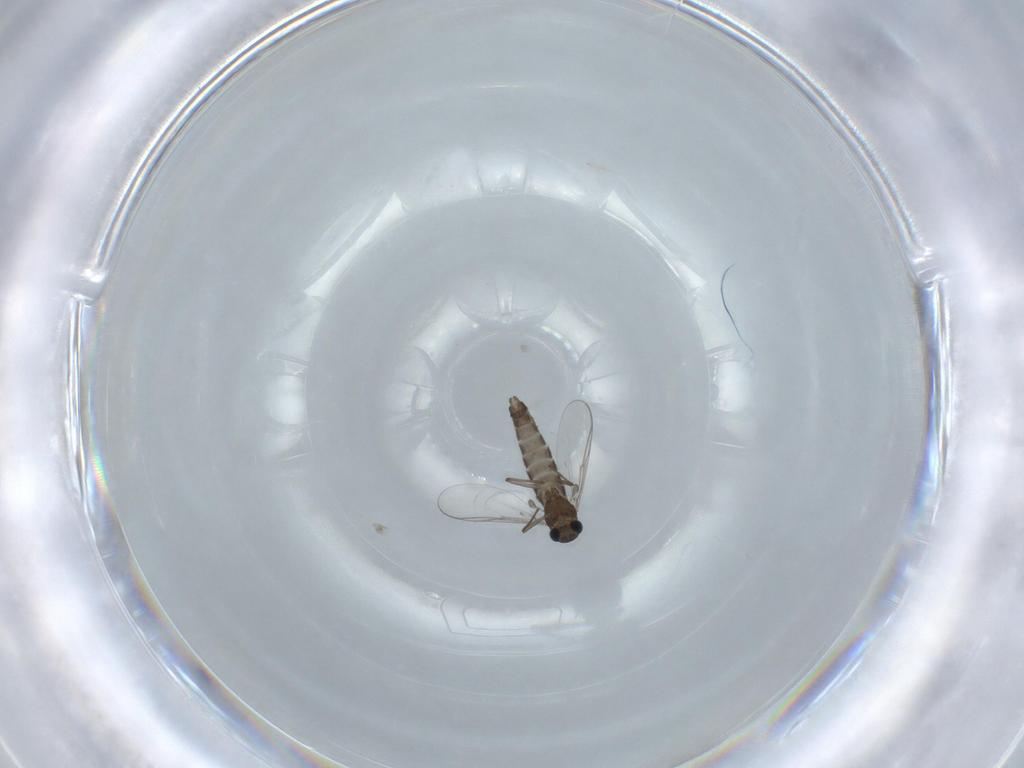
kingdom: Animalia
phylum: Arthropoda
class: Insecta
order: Diptera
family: Chironomidae
